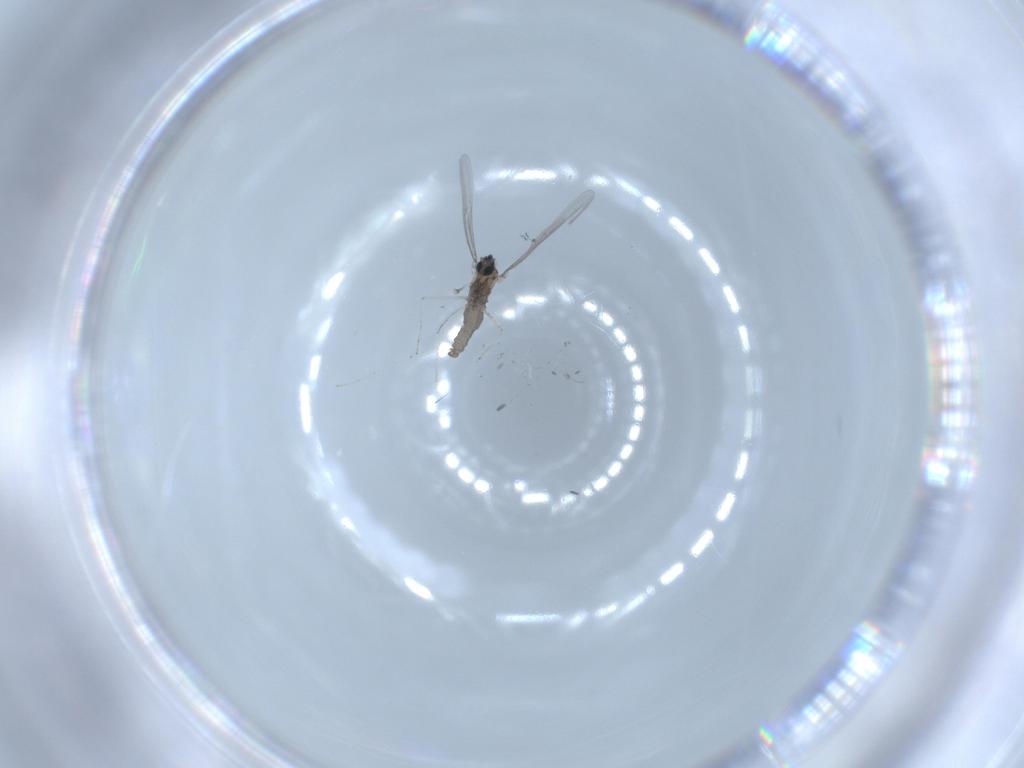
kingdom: Animalia
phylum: Arthropoda
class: Insecta
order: Diptera
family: Cecidomyiidae
